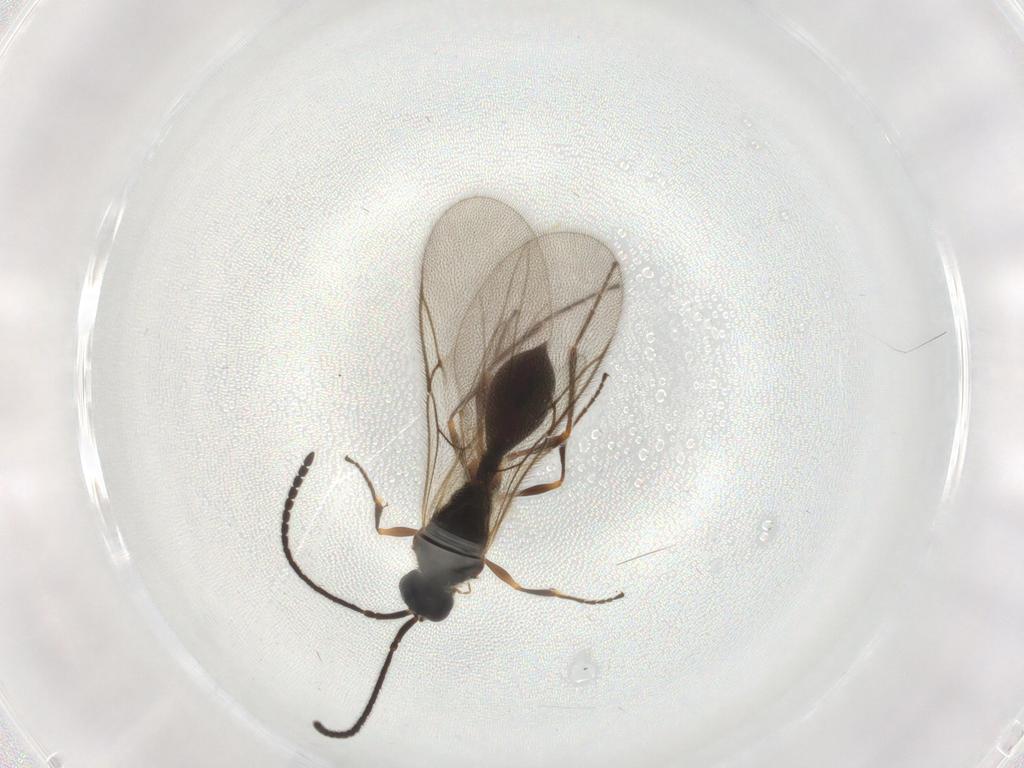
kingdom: Animalia
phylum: Arthropoda
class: Insecta
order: Hymenoptera
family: Diapriidae
